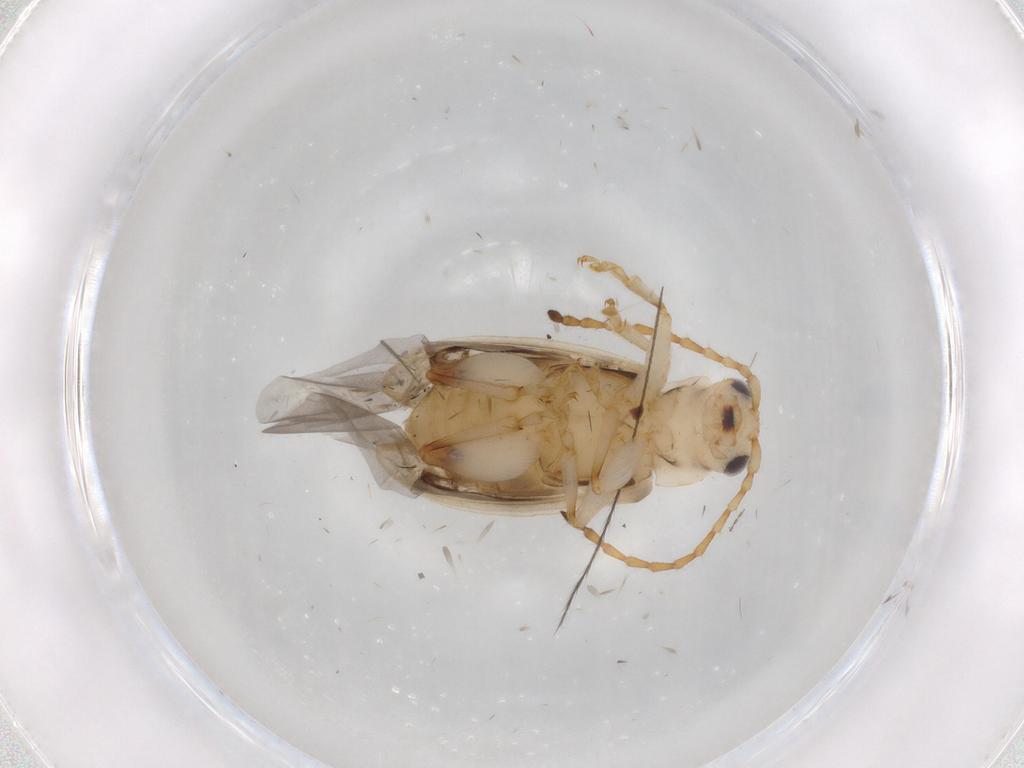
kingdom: Animalia
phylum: Arthropoda
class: Insecta
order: Coleoptera
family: Chrysomelidae
